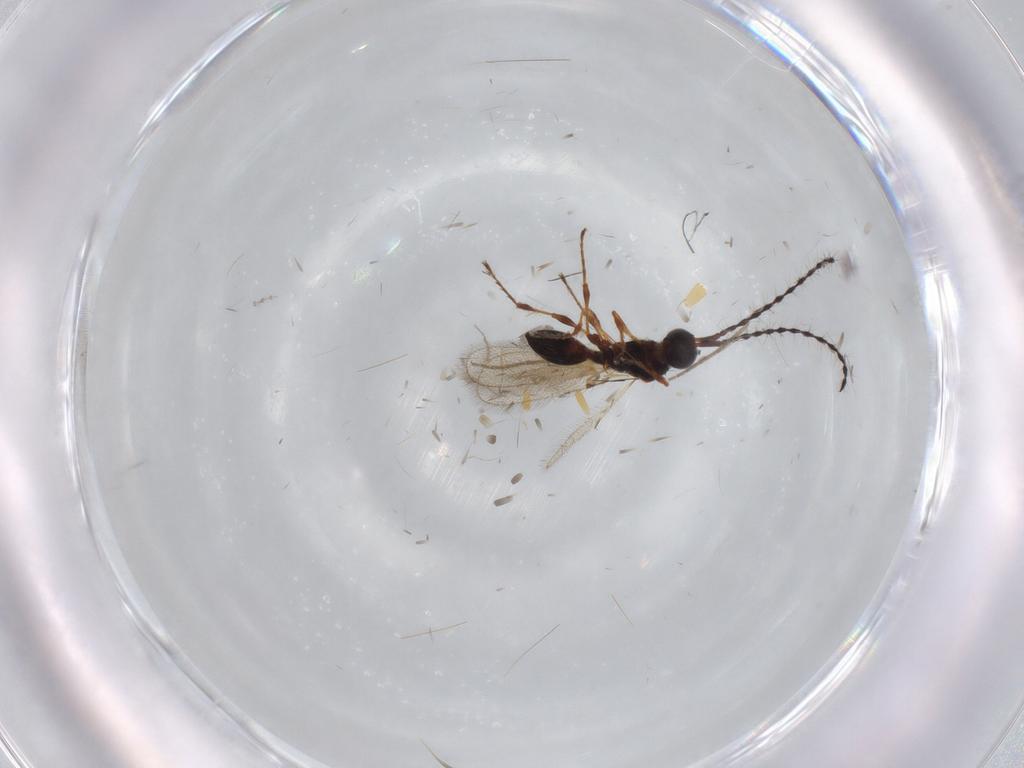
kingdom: Animalia
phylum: Arthropoda
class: Insecta
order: Hymenoptera
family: Diapriidae
